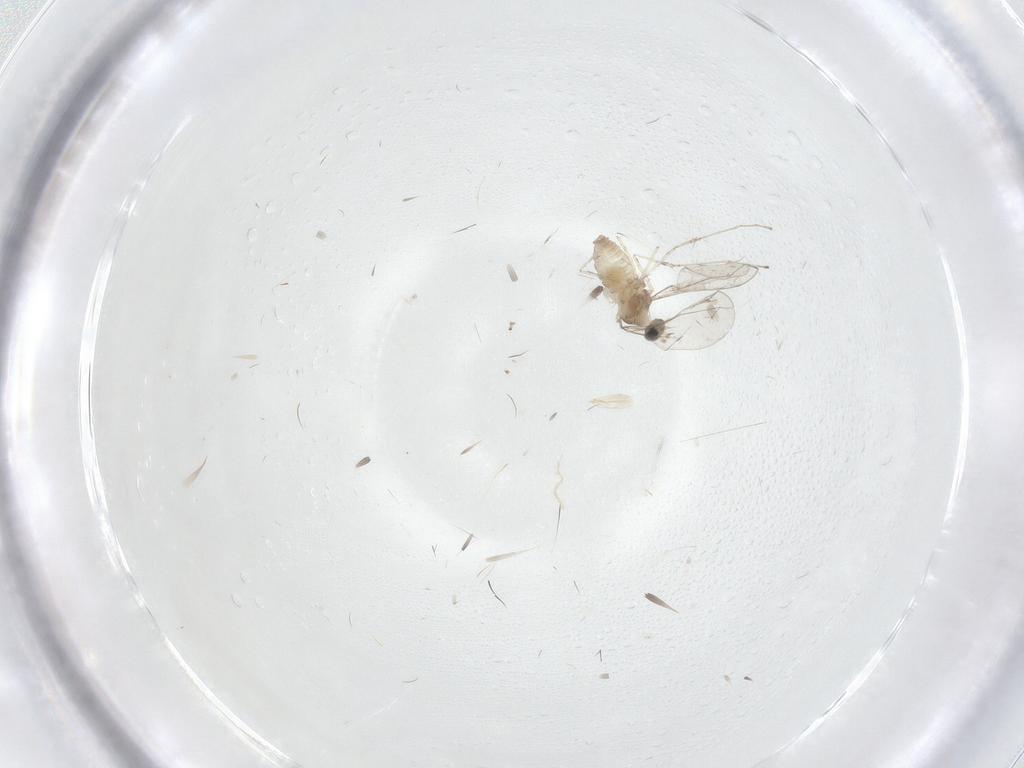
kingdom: Animalia
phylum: Arthropoda
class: Insecta
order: Diptera
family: Cecidomyiidae
